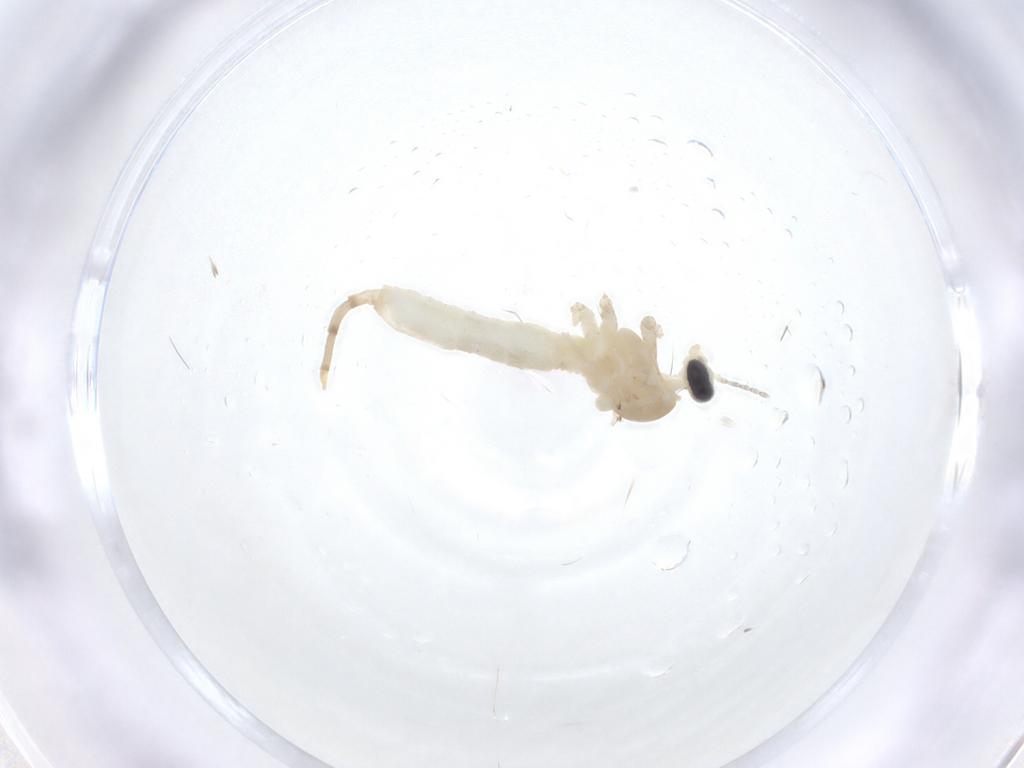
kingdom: Animalia
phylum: Arthropoda
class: Insecta
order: Diptera
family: Cecidomyiidae
